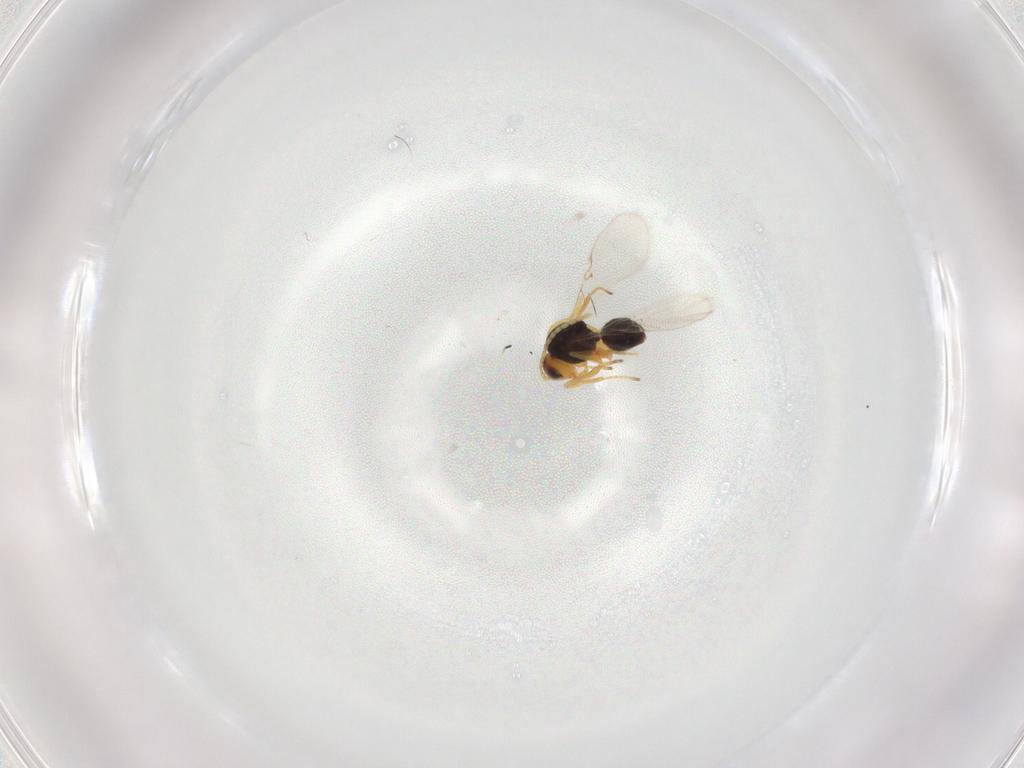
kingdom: Animalia
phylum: Arthropoda
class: Insecta
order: Hymenoptera
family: Figitidae
